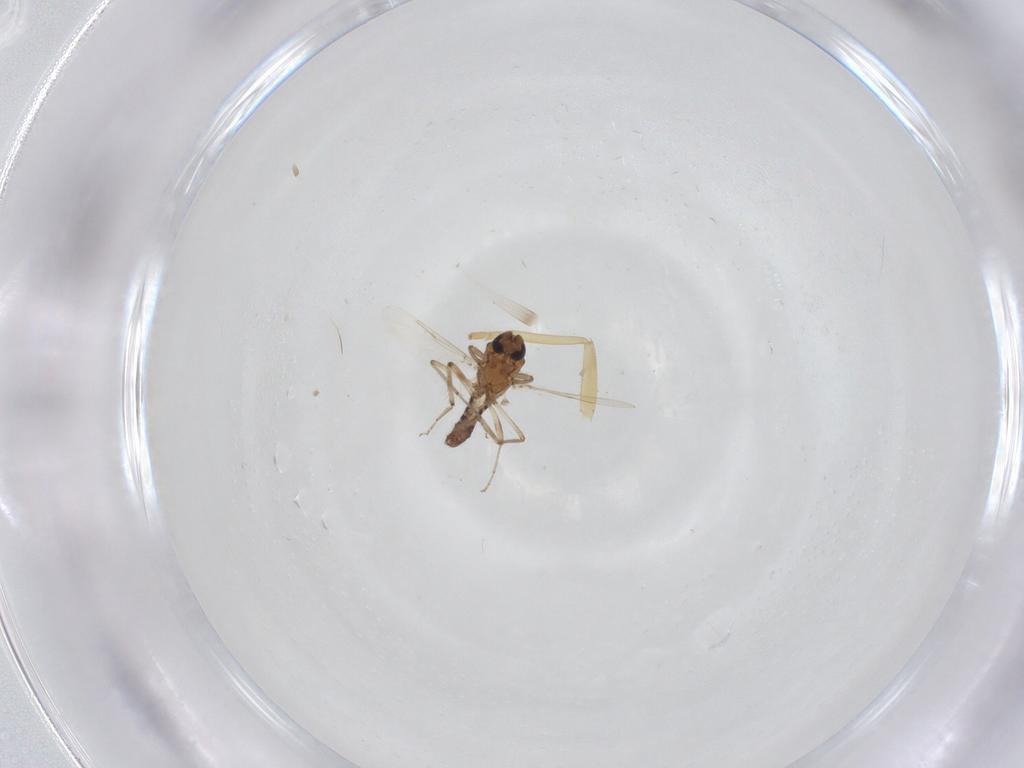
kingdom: Animalia
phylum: Arthropoda
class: Insecta
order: Diptera
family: Ceratopogonidae
